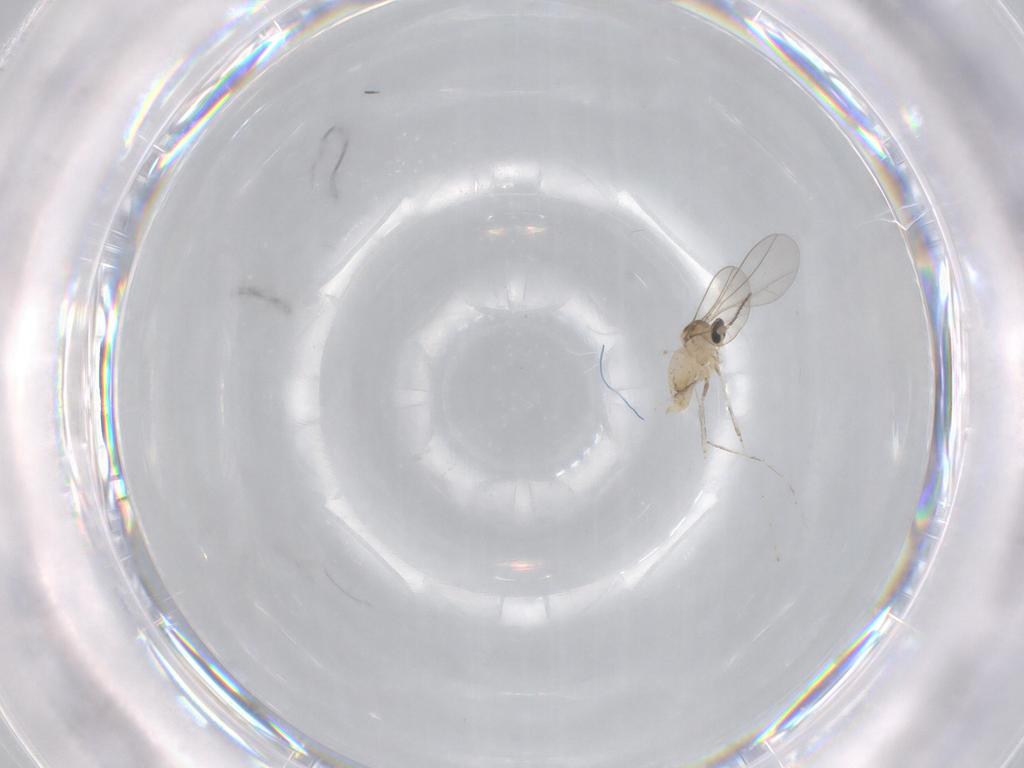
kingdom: Animalia
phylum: Arthropoda
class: Insecta
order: Diptera
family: Cecidomyiidae
